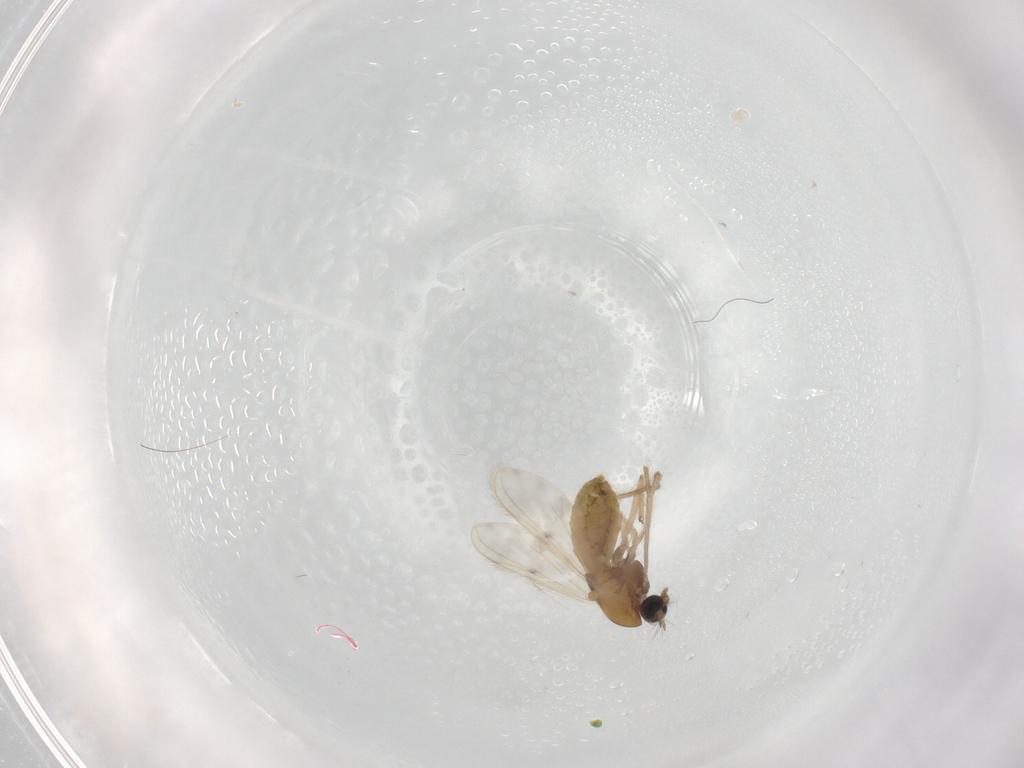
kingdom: Animalia
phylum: Arthropoda
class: Insecta
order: Diptera
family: Chironomidae
